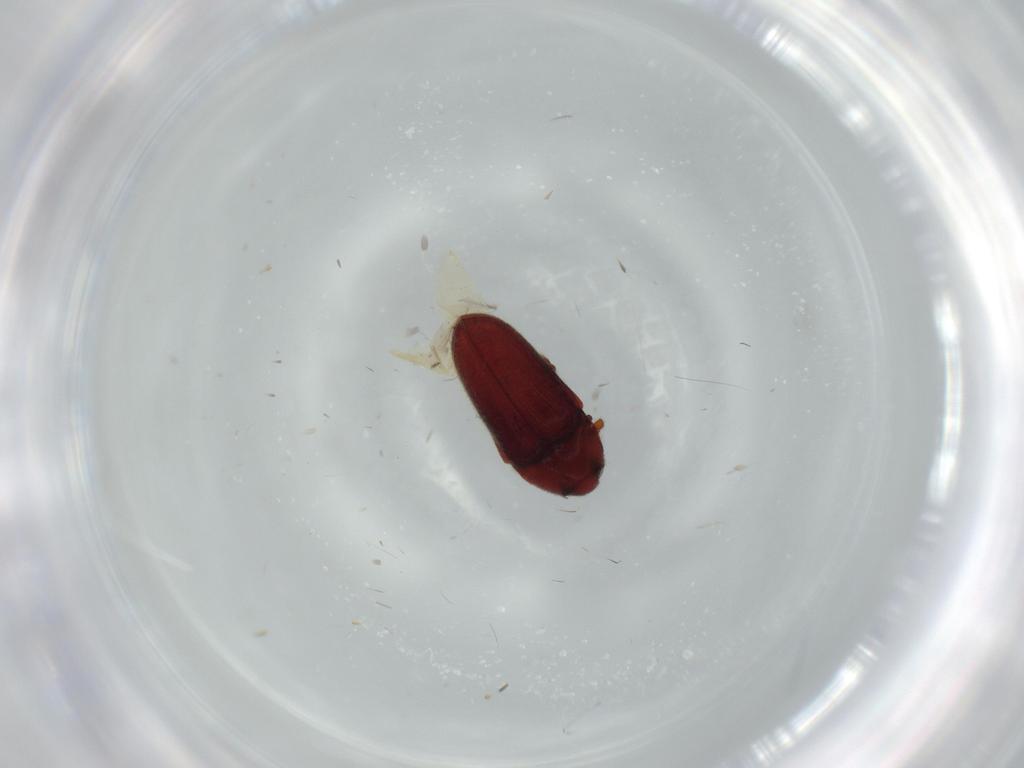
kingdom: Animalia
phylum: Arthropoda
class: Insecta
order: Coleoptera
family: Throscidae
